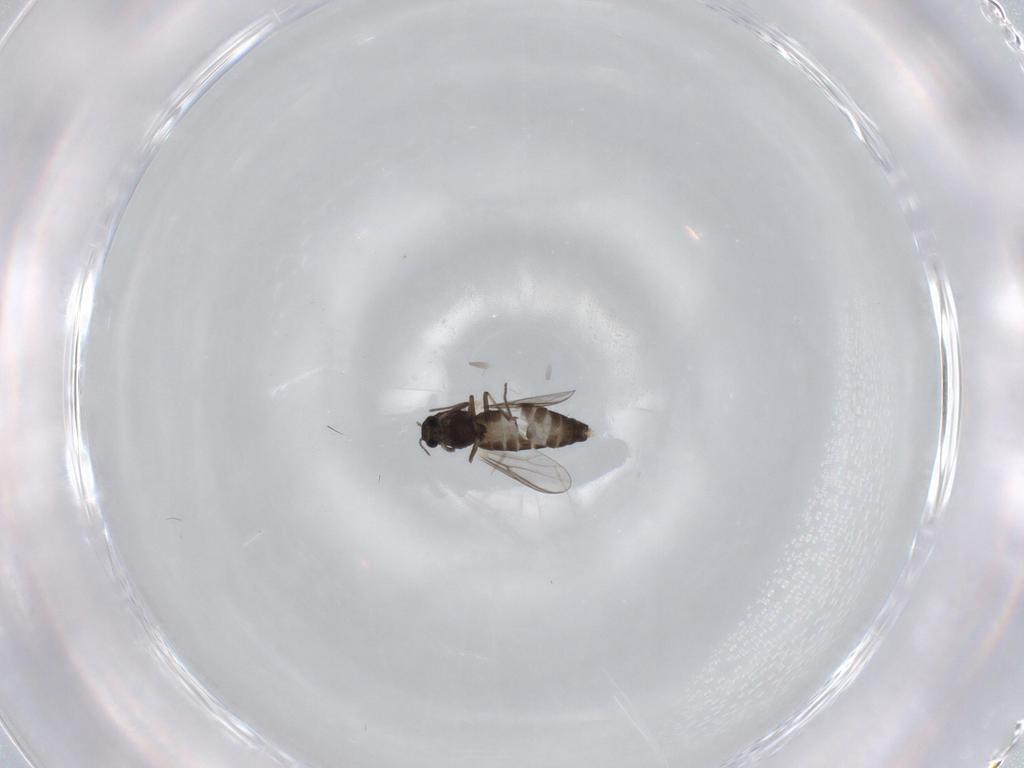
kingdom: Animalia
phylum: Arthropoda
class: Insecta
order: Diptera
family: Chironomidae
